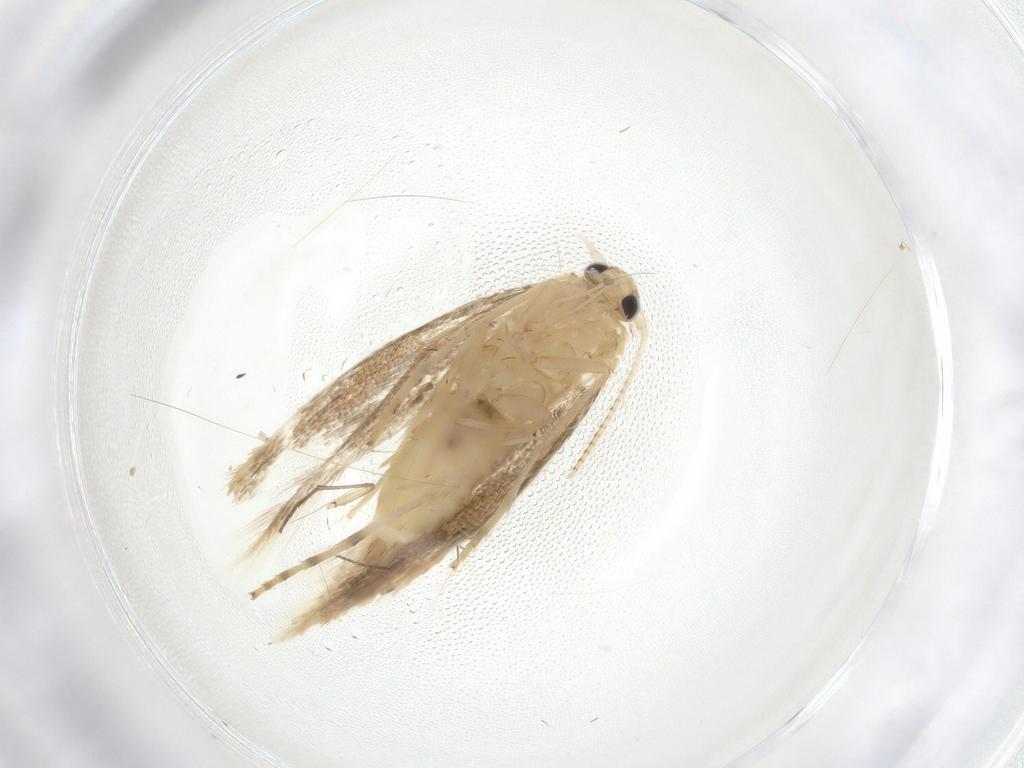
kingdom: Animalia
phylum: Arthropoda
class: Insecta
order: Lepidoptera
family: Gracillariidae
